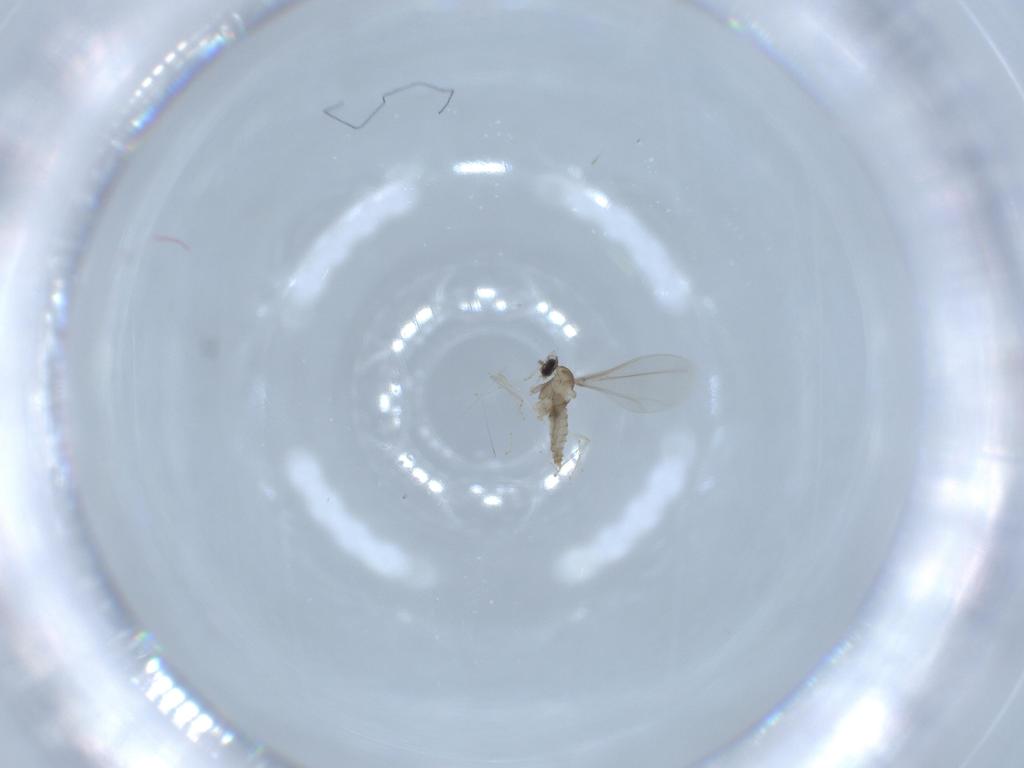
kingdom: Animalia
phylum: Arthropoda
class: Insecta
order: Diptera
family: Cecidomyiidae
